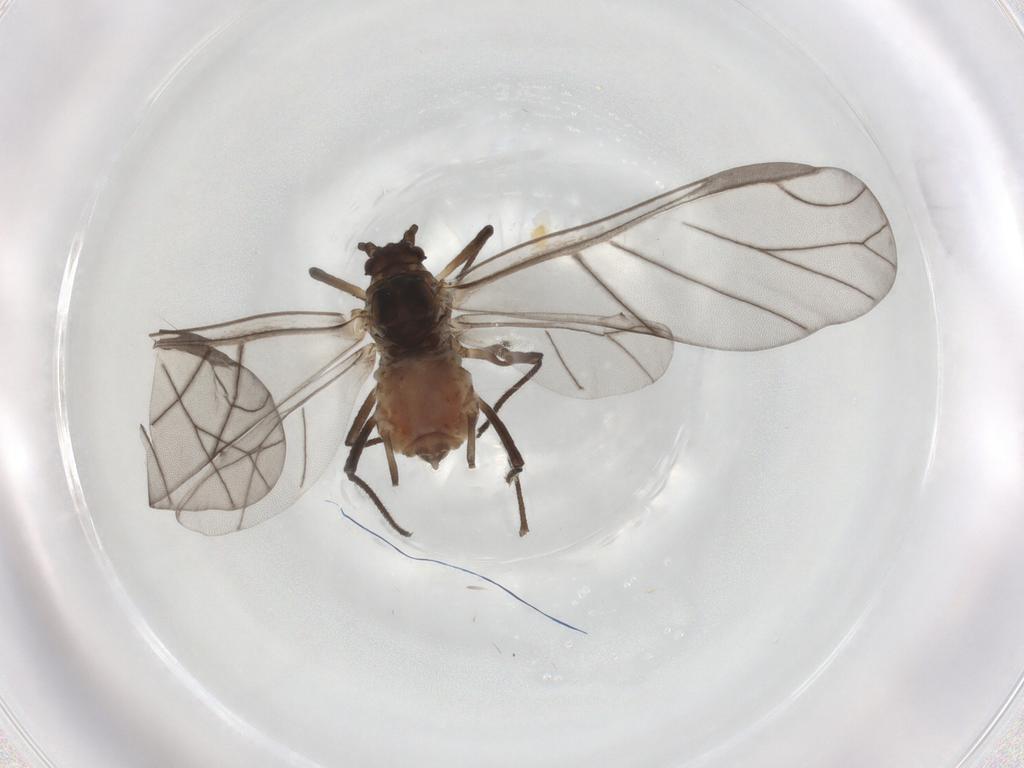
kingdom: Animalia
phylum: Arthropoda
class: Insecta
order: Hemiptera
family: Aphididae
